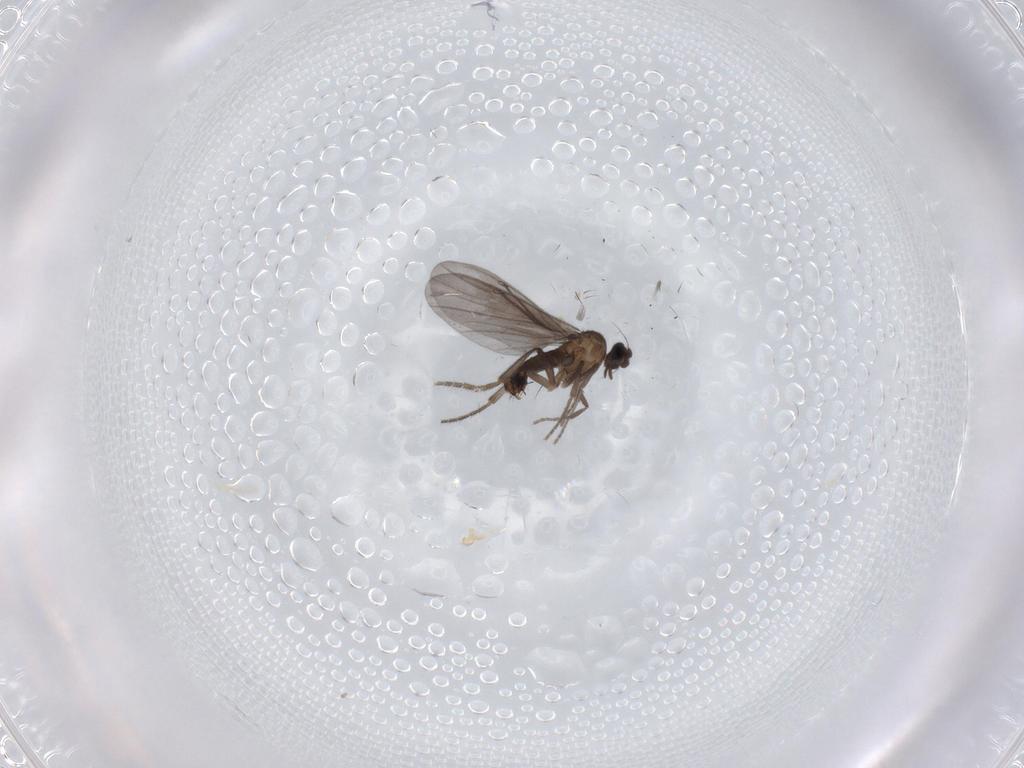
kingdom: Animalia
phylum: Arthropoda
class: Insecta
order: Diptera
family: Phoridae
